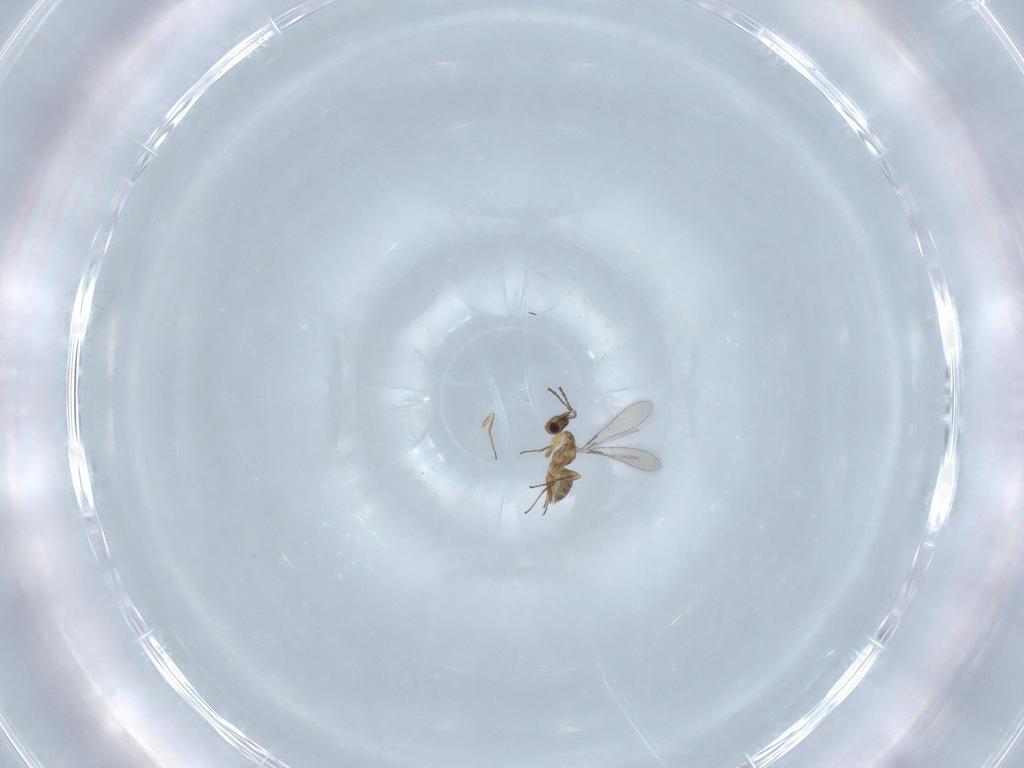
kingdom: Animalia
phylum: Arthropoda
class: Insecta
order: Hymenoptera
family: Mymaridae
